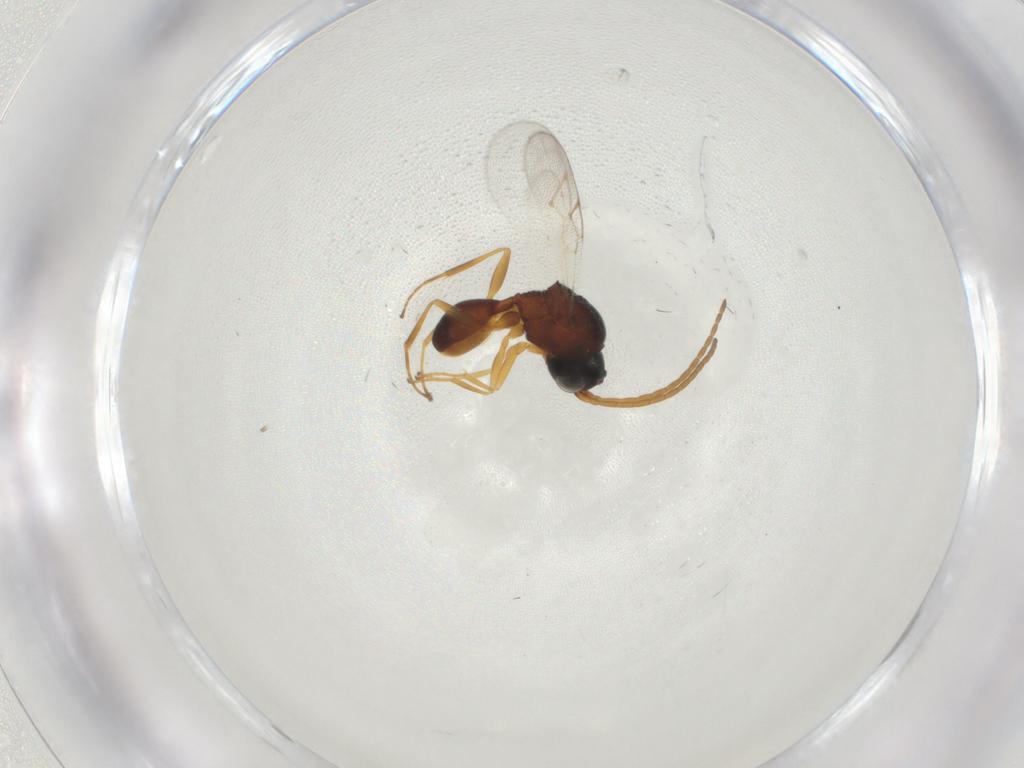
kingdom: Animalia
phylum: Arthropoda
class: Insecta
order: Hymenoptera
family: Figitidae
